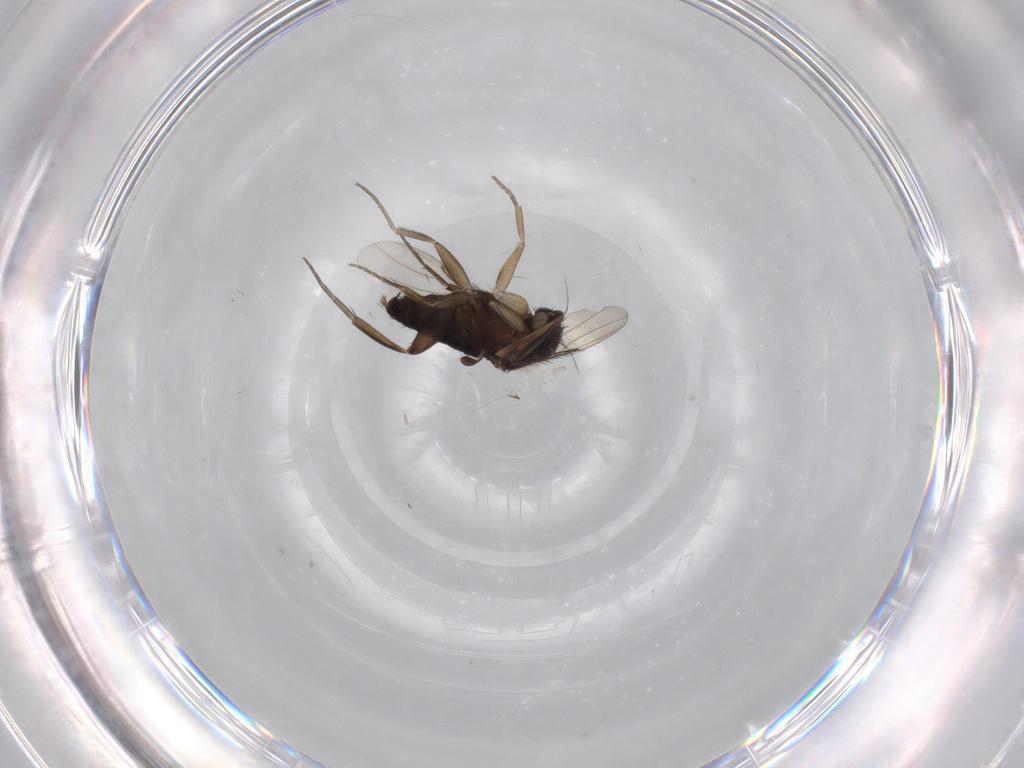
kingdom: Animalia
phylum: Arthropoda
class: Insecta
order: Diptera
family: Phoridae
